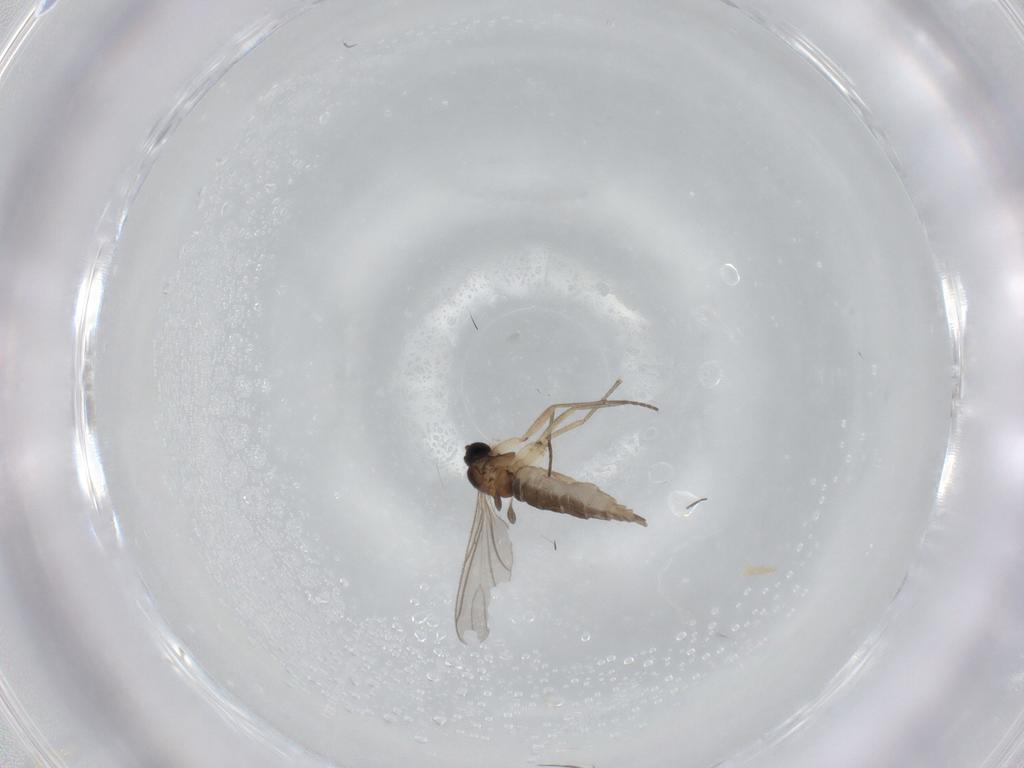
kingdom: Animalia
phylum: Arthropoda
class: Insecta
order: Diptera
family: Sciaridae
